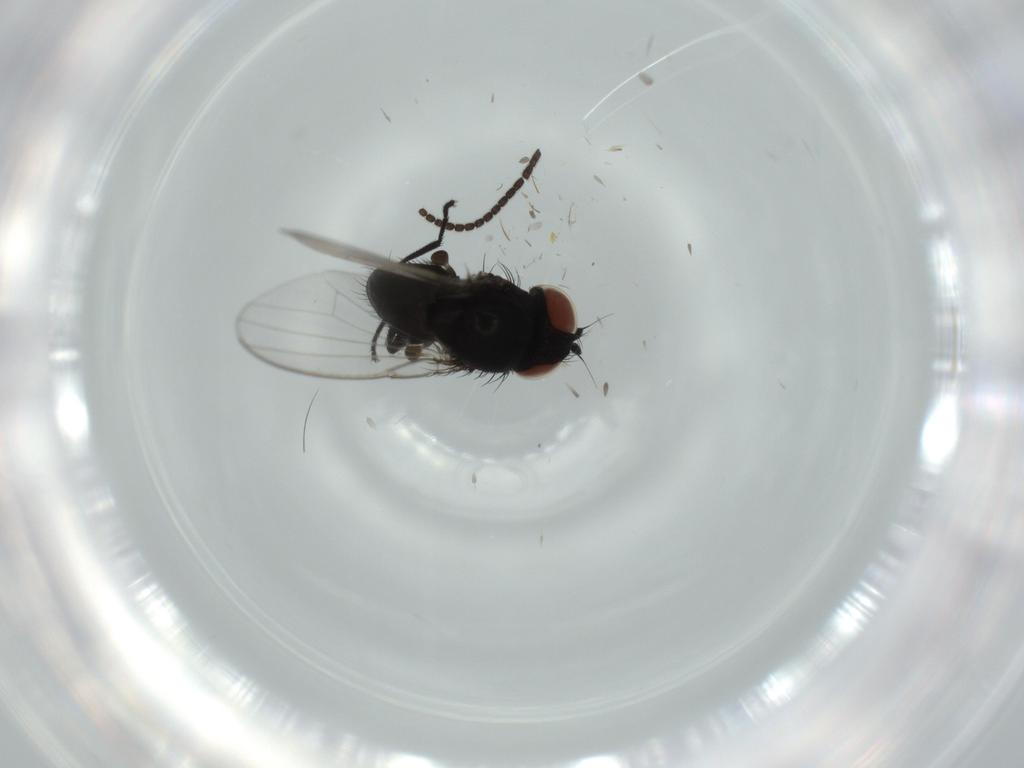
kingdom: Animalia
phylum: Arthropoda
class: Insecta
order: Diptera
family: Milichiidae
